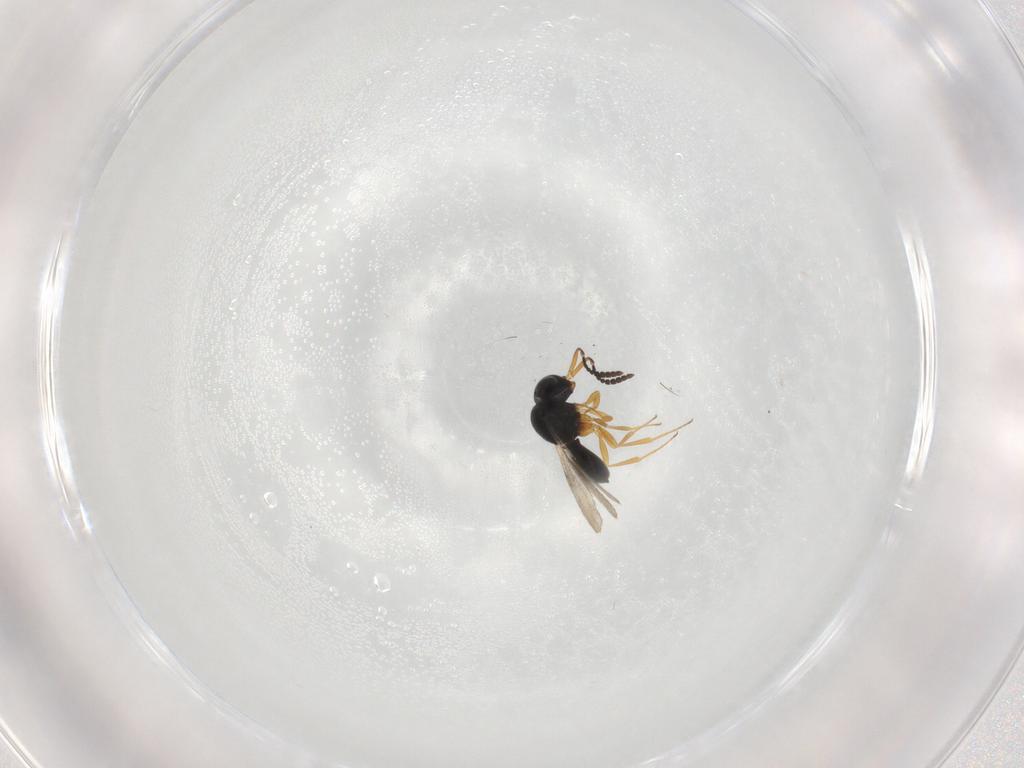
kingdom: Animalia
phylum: Arthropoda
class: Insecta
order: Hymenoptera
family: Scelionidae
